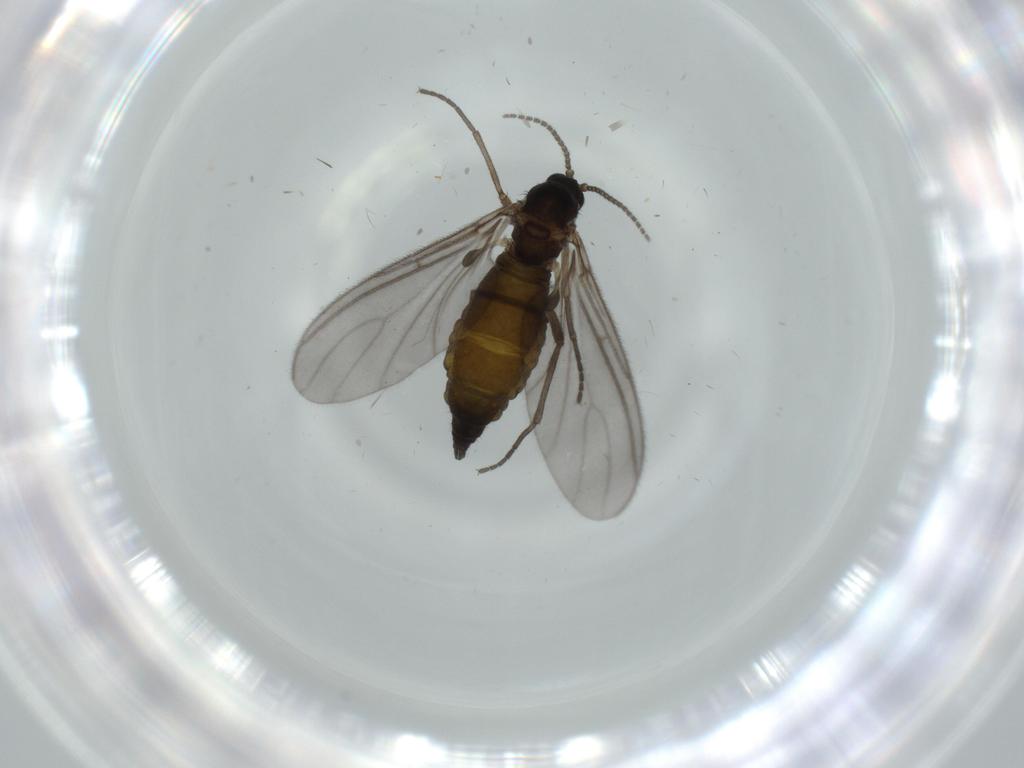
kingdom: Animalia
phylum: Arthropoda
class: Insecta
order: Diptera
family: Sciaridae
